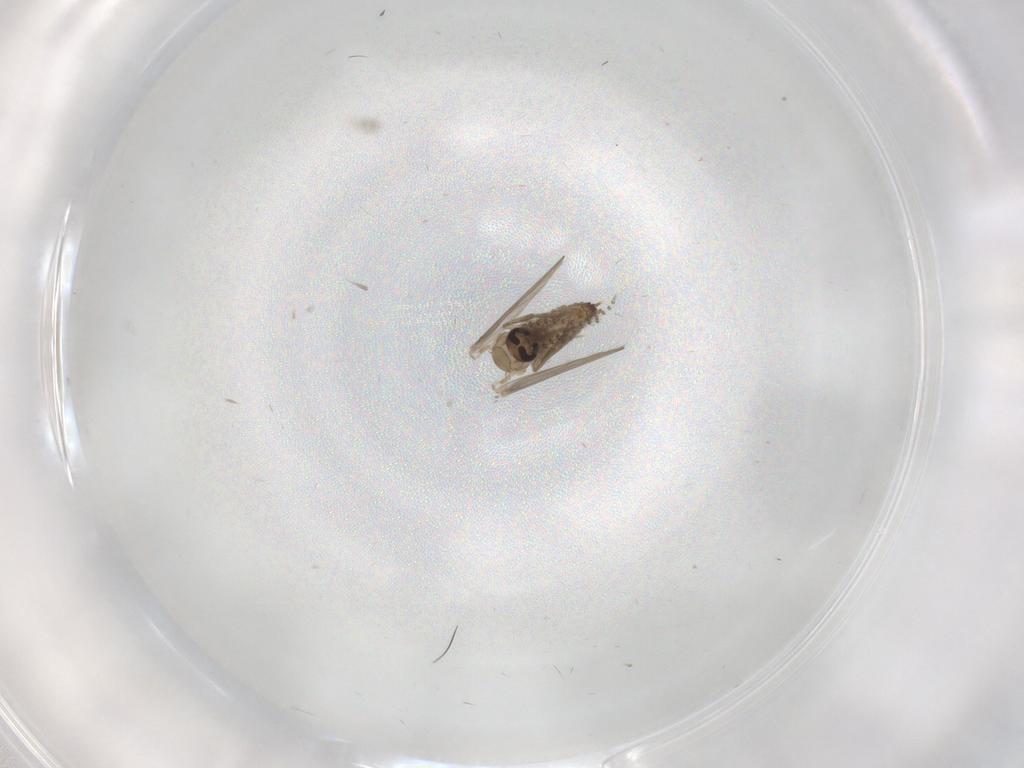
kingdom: Animalia
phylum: Arthropoda
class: Insecta
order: Diptera
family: Psychodidae
